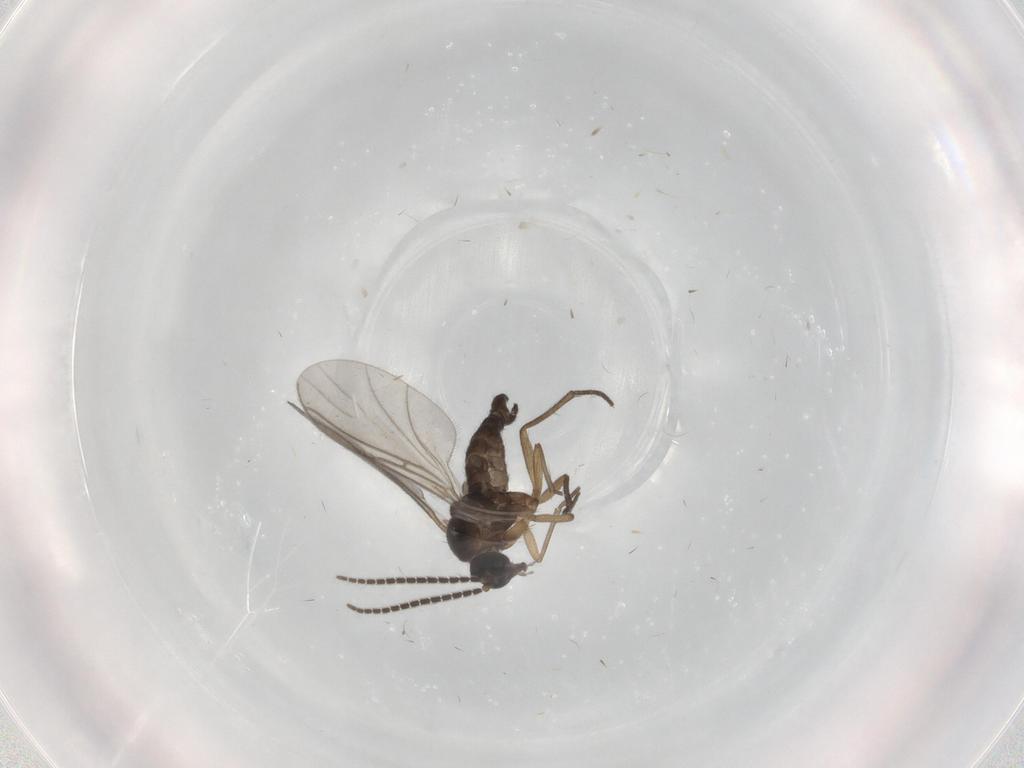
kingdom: Animalia
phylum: Arthropoda
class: Insecta
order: Diptera
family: Sciaridae
